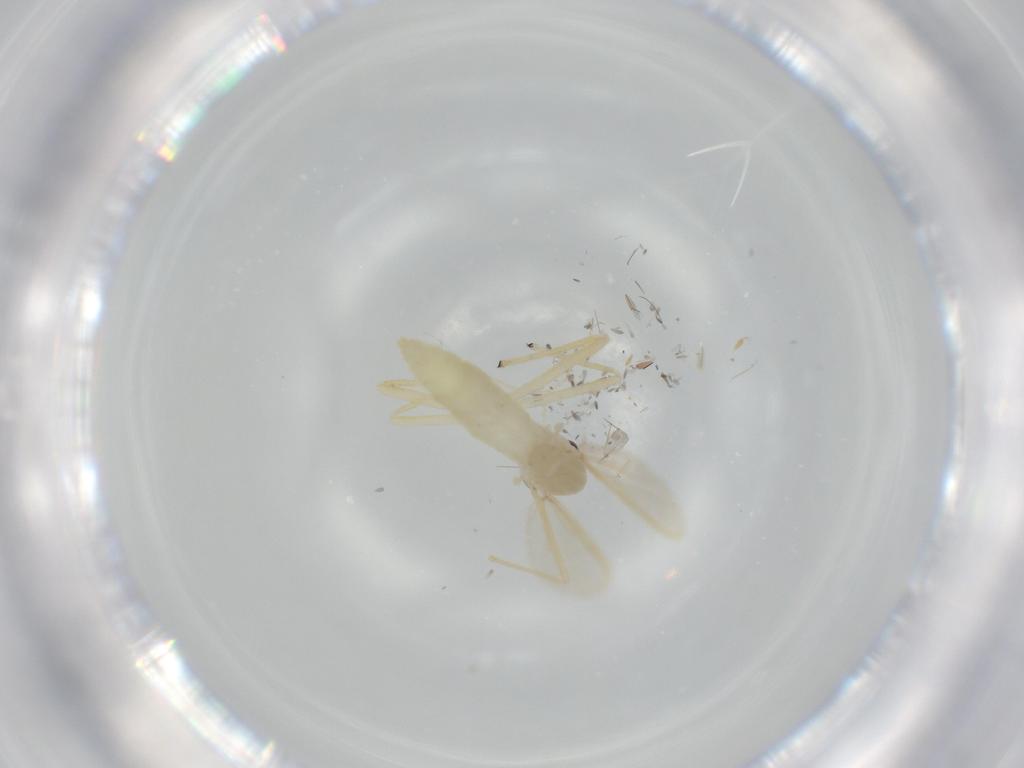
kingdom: Animalia
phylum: Arthropoda
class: Insecta
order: Diptera
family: Chironomidae
